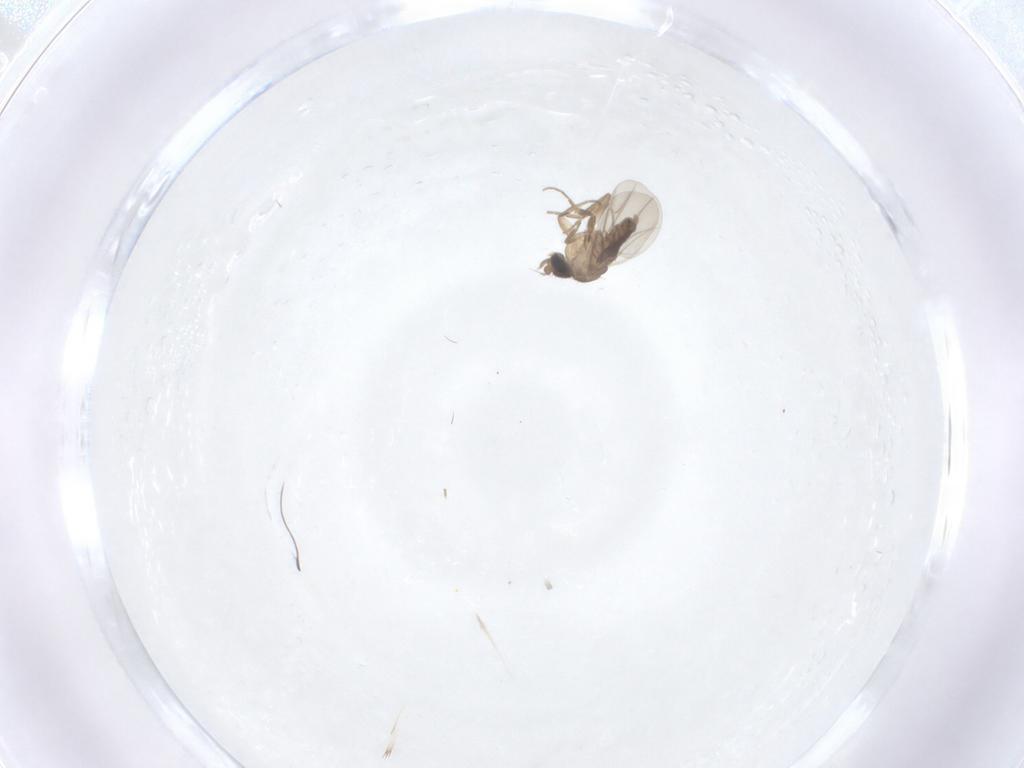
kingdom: Animalia
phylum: Arthropoda
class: Insecta
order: Diptera
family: Phoridae
